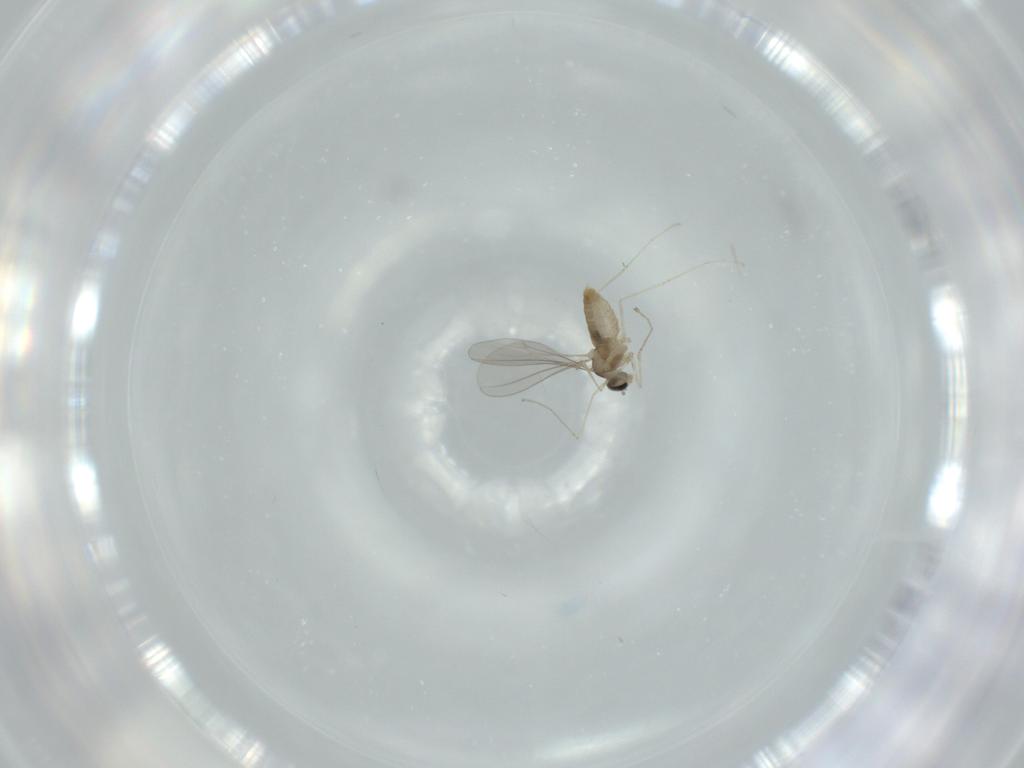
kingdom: Animalia
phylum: Arthropoda
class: Insecta
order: Diptera
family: Cecidomyiidae
